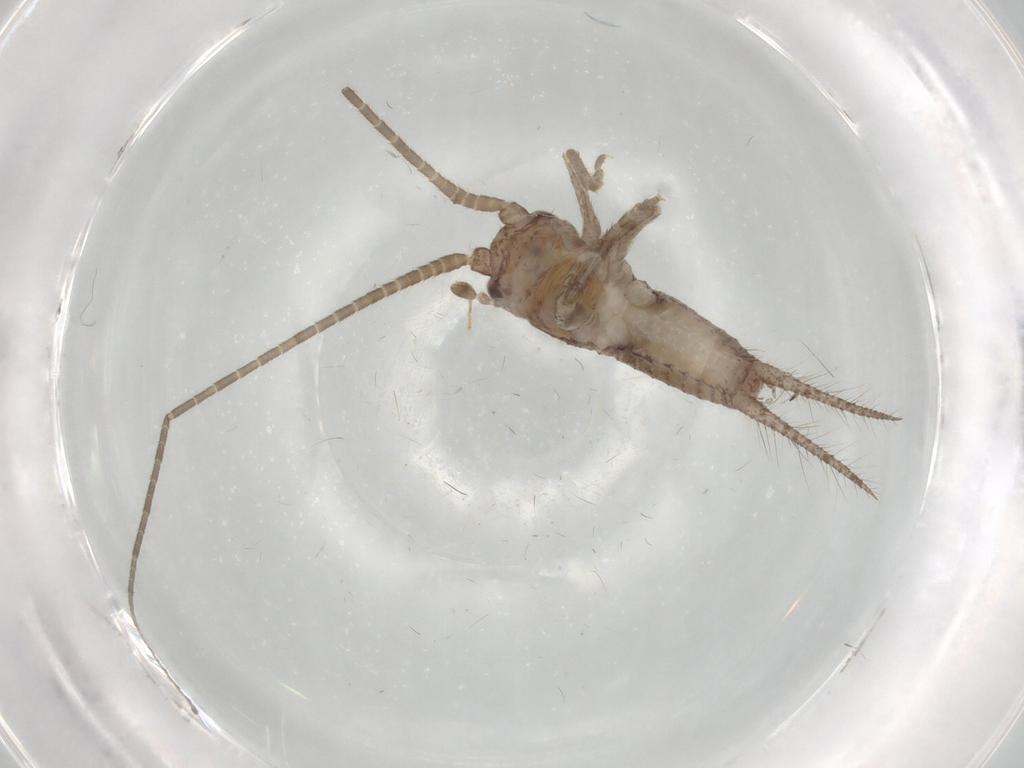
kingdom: Animalia
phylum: Arthropoda
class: Insecta
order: Orthoptera
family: Gryllidae
